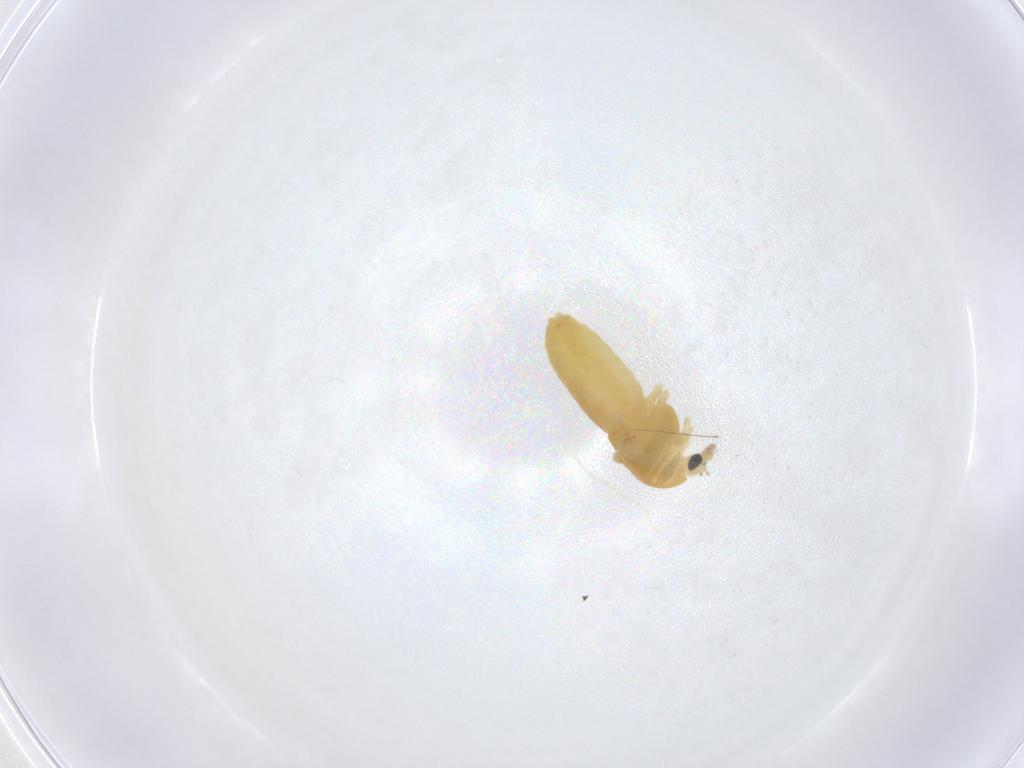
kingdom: Animalia
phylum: Arthropoda
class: Insecta
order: Diptera
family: Chironomidae
